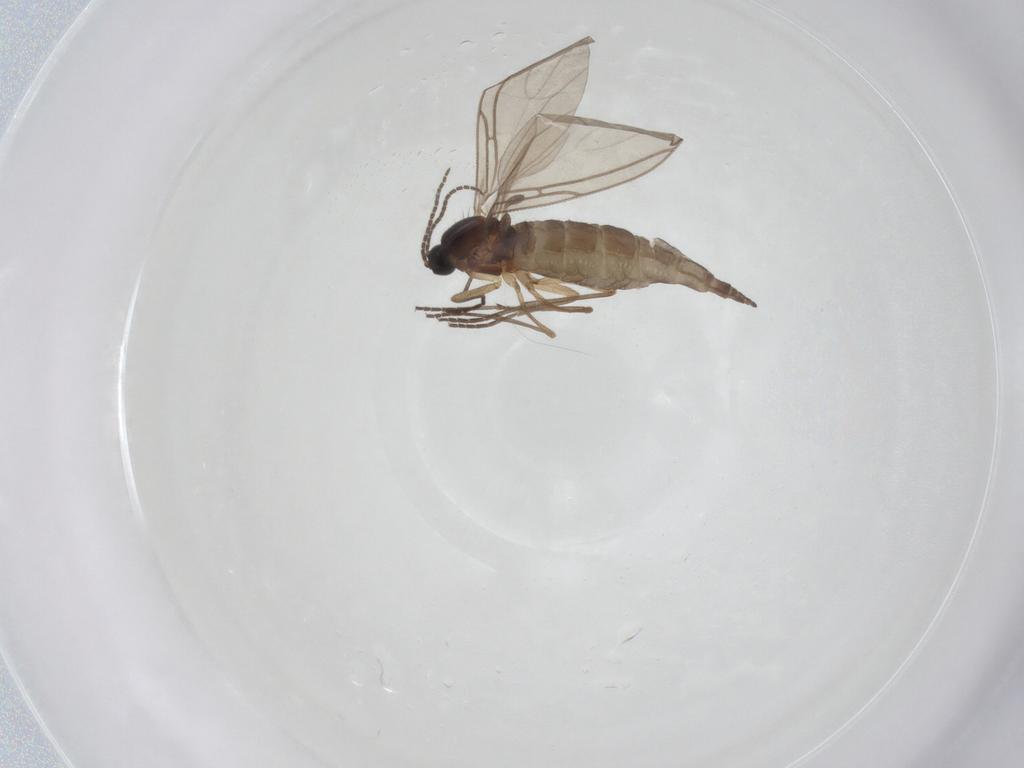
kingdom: Animalia
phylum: Arthropoda
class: Insecta
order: Diptera
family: Sciaridae
